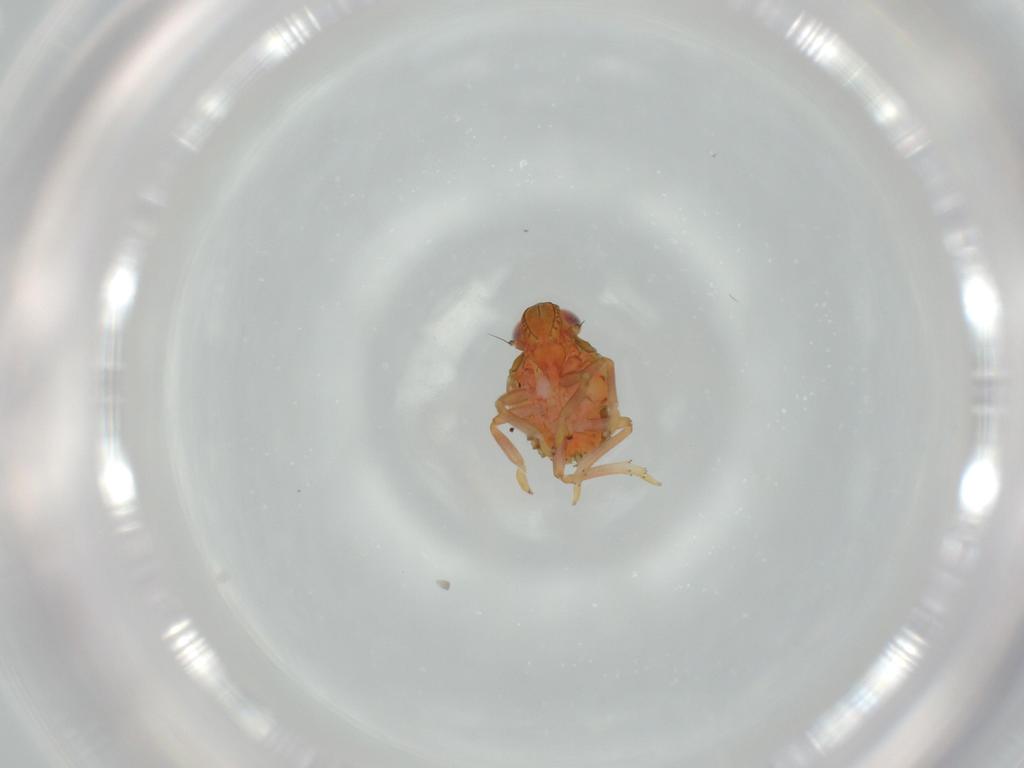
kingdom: Animalia
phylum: Arthropoda
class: Insecta
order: Hemiptera
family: Issidae
